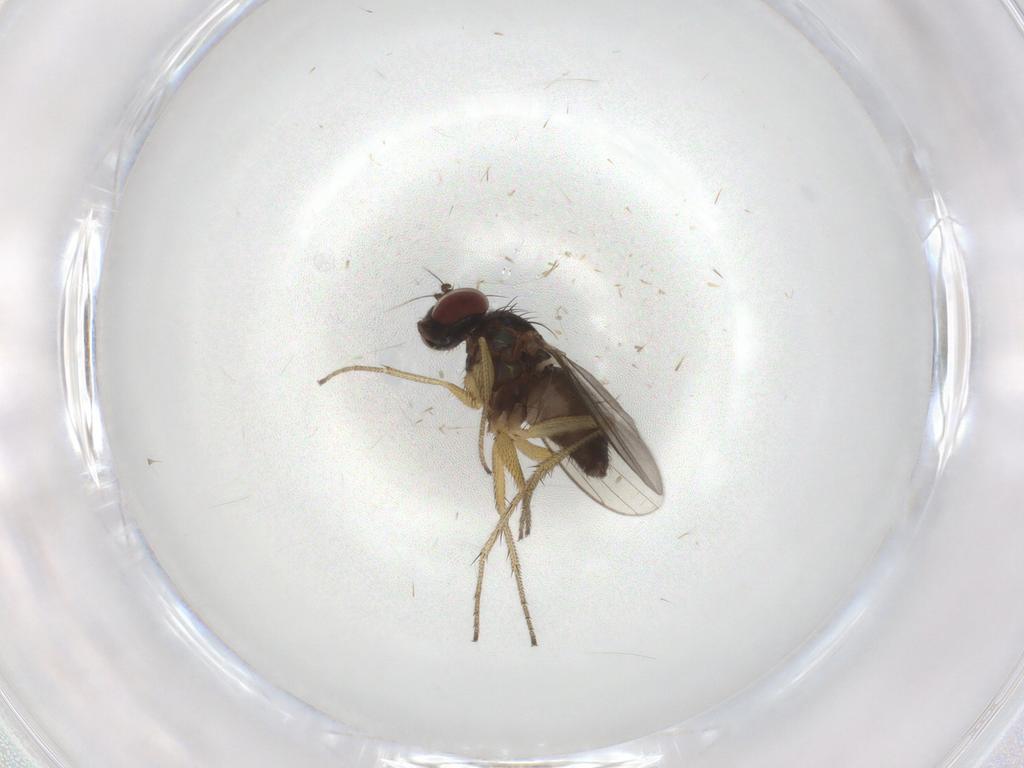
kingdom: Animalia
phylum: Arthropoda
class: Insecta
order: Diptera
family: Dolichopodidae
